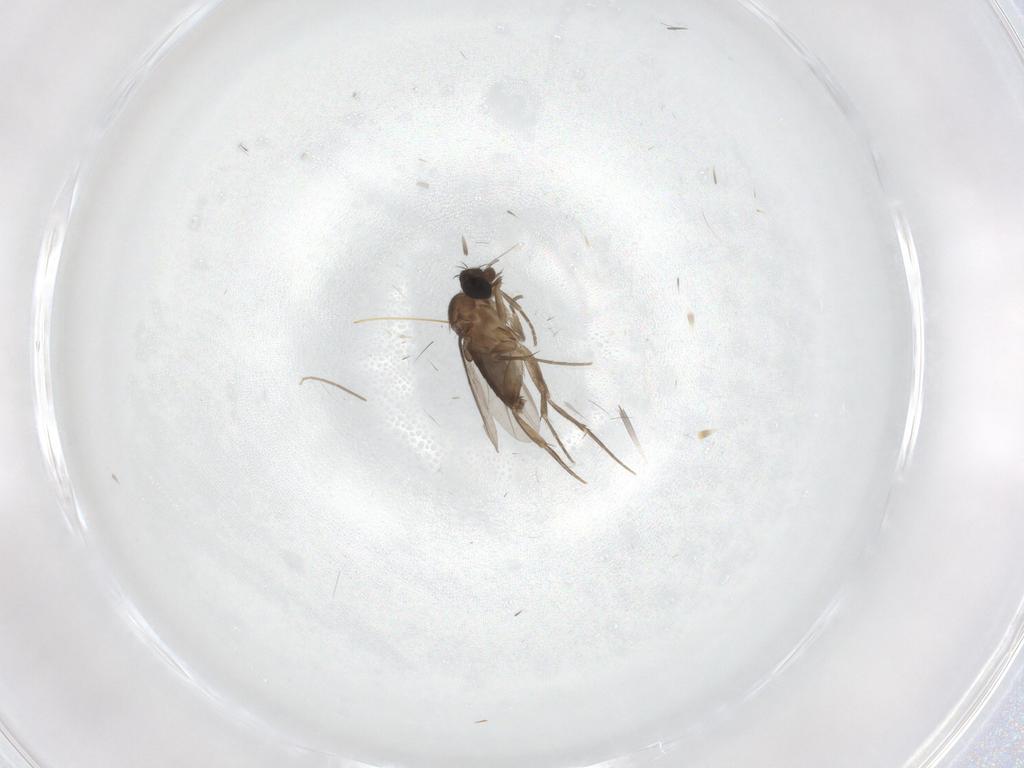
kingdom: Animalia
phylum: Arthropoda
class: Insecta
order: Diptera
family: Phoridae
